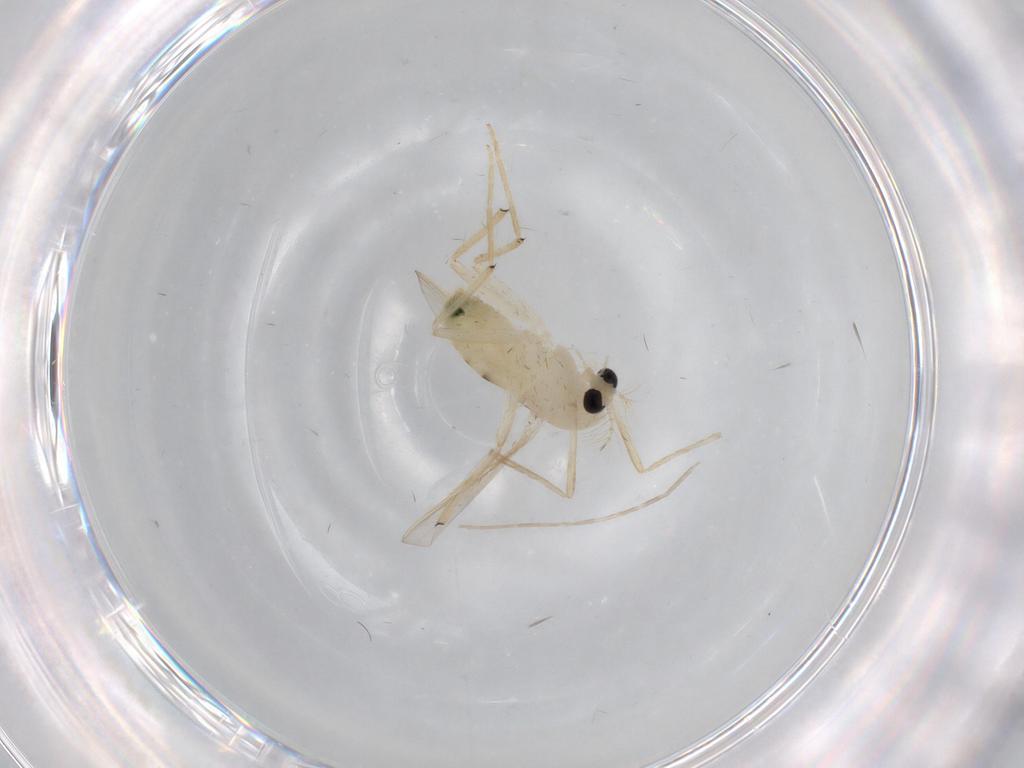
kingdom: Animalia
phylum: Arthropoda
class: Insecta
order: Diptera
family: Chironomidae
